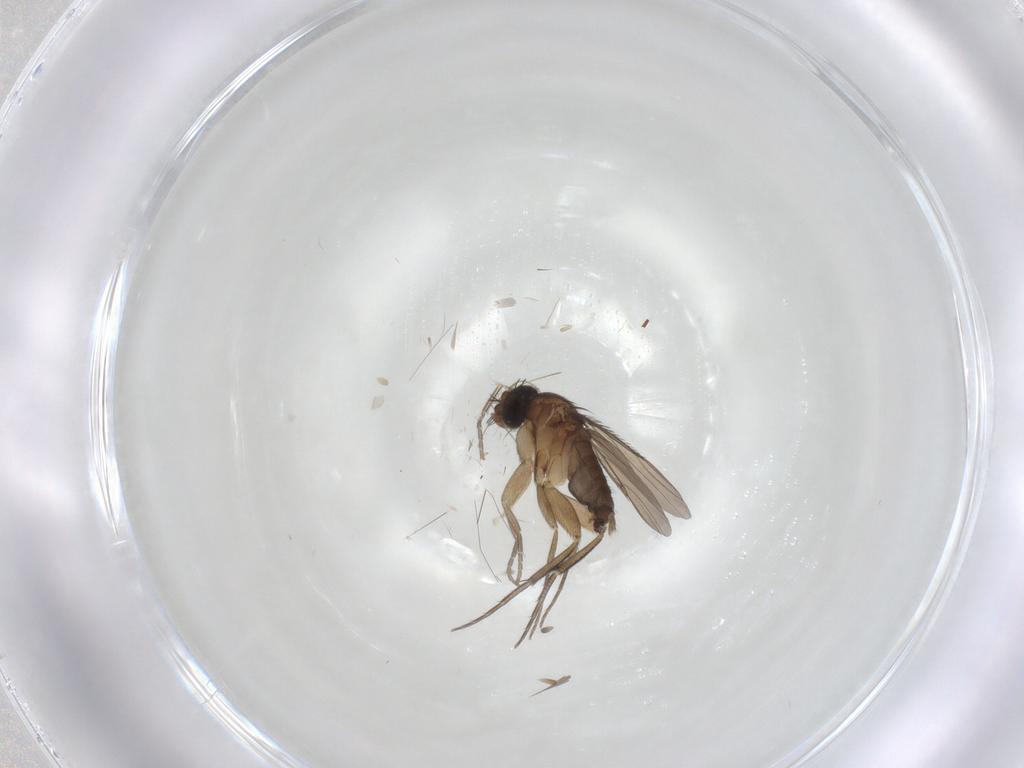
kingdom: Animalia
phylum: Arthropoda
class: Insecta
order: Diptera
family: Phoridae
